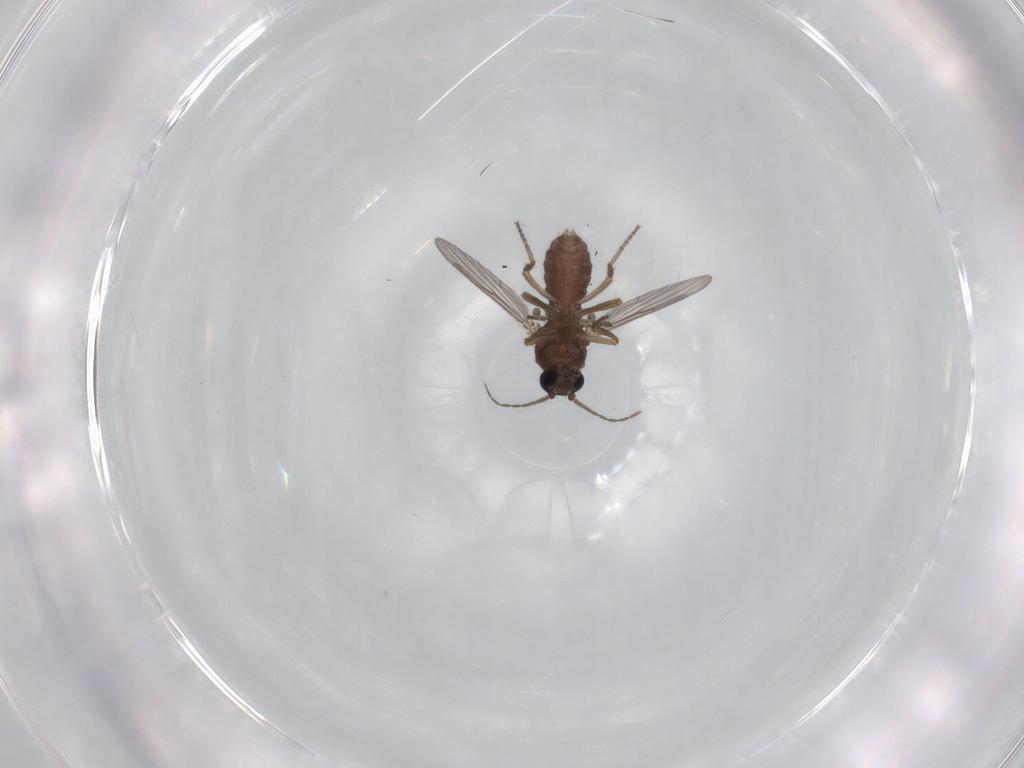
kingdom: Animalia
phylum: Arthropoda
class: Insecta
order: Diptera
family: Ceratopogonidae
